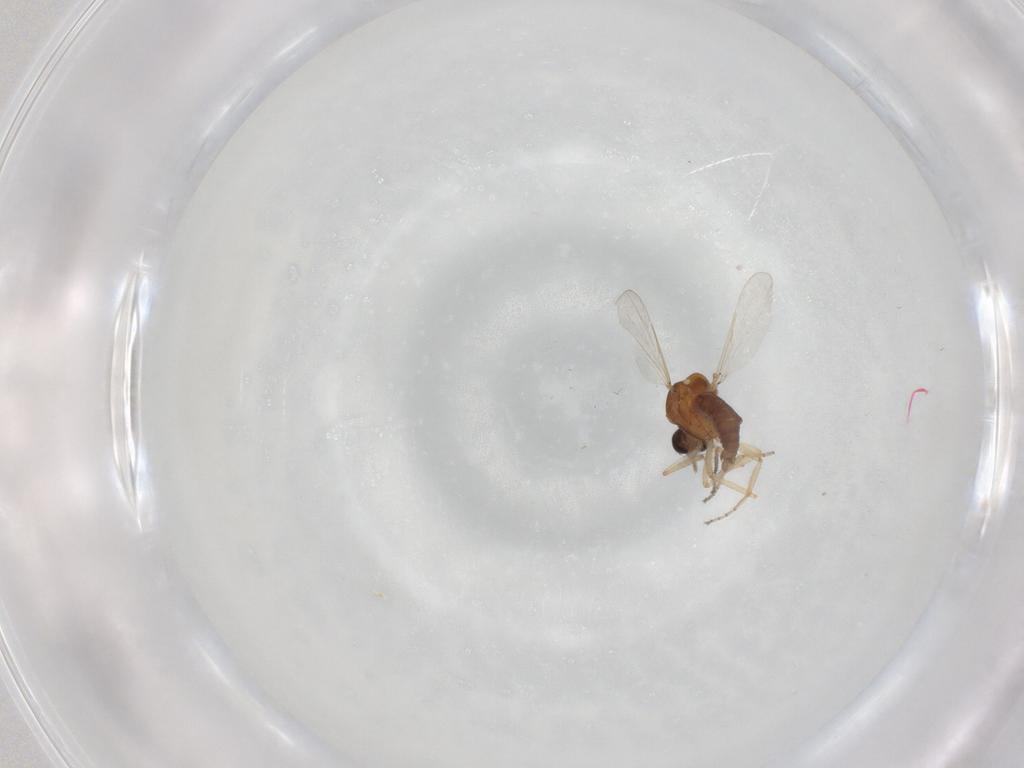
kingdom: Animalia
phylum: Arthropoda
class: Insecta
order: Diptera
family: Ceratopogonidae
